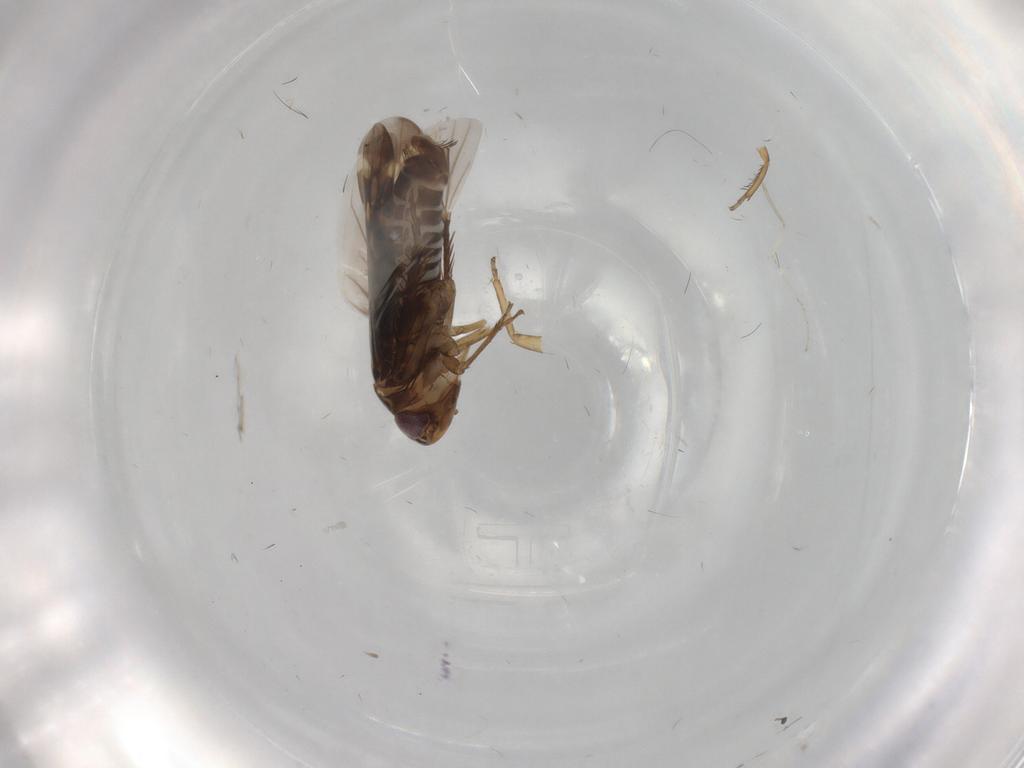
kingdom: Animalia
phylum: Arthropoda
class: Insecta
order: Hemiptera
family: Cicadellidae
